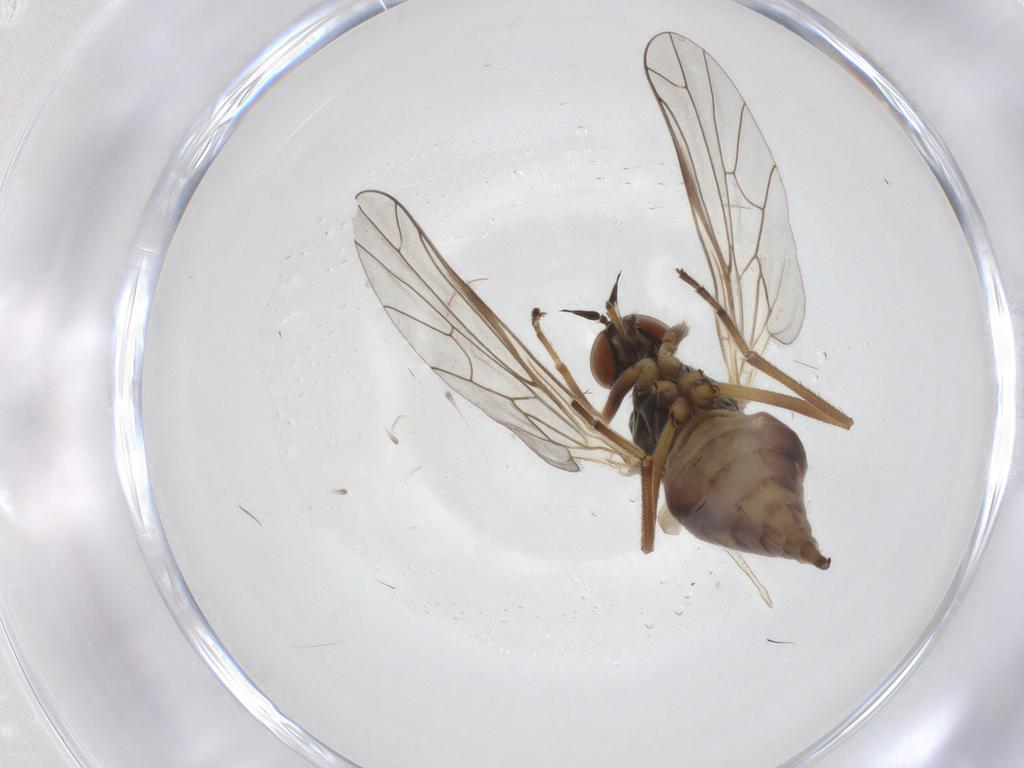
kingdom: Animalia
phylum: Arthropoda
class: Insecta
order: Diptera
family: Empididae
